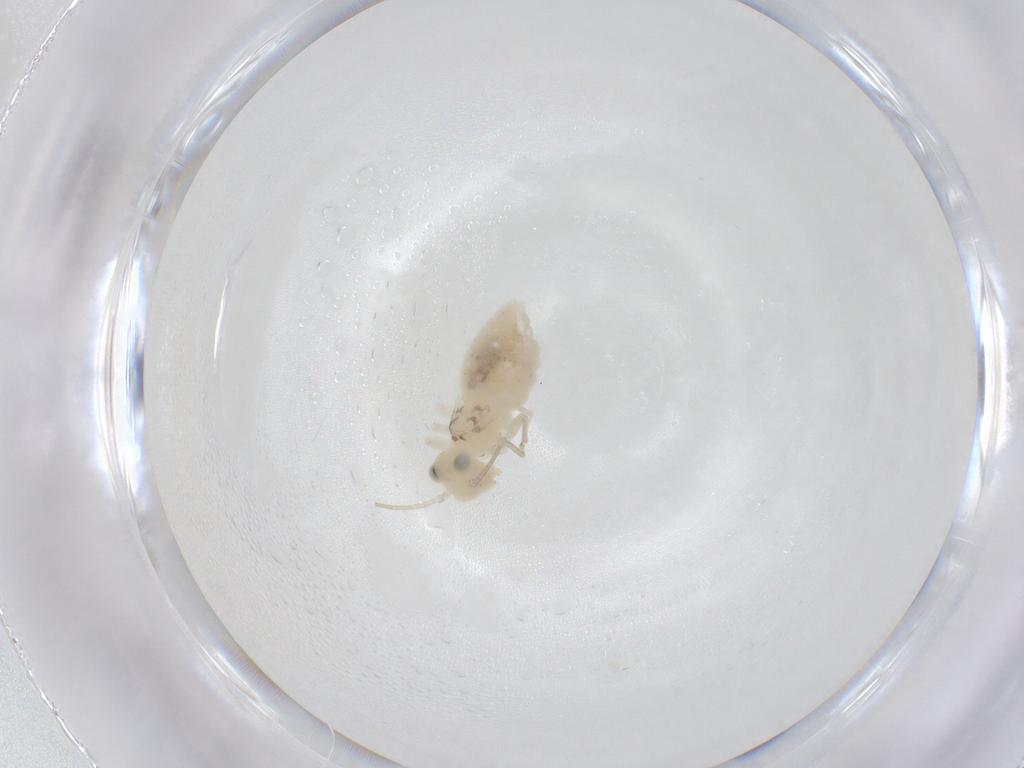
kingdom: Animalia
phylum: Arthropoda
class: Insecta
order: Psocodea
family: Caeciliusidae
